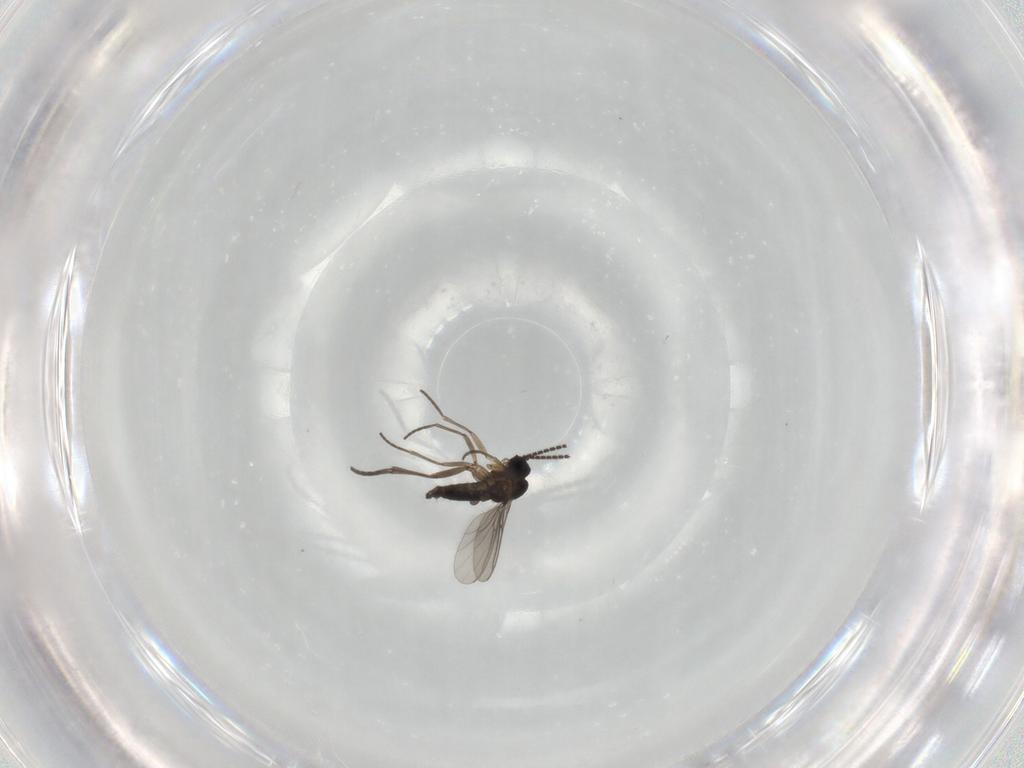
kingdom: Animalia
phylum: Arthropoda
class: Insecta
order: Diptera
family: Sciaridae
